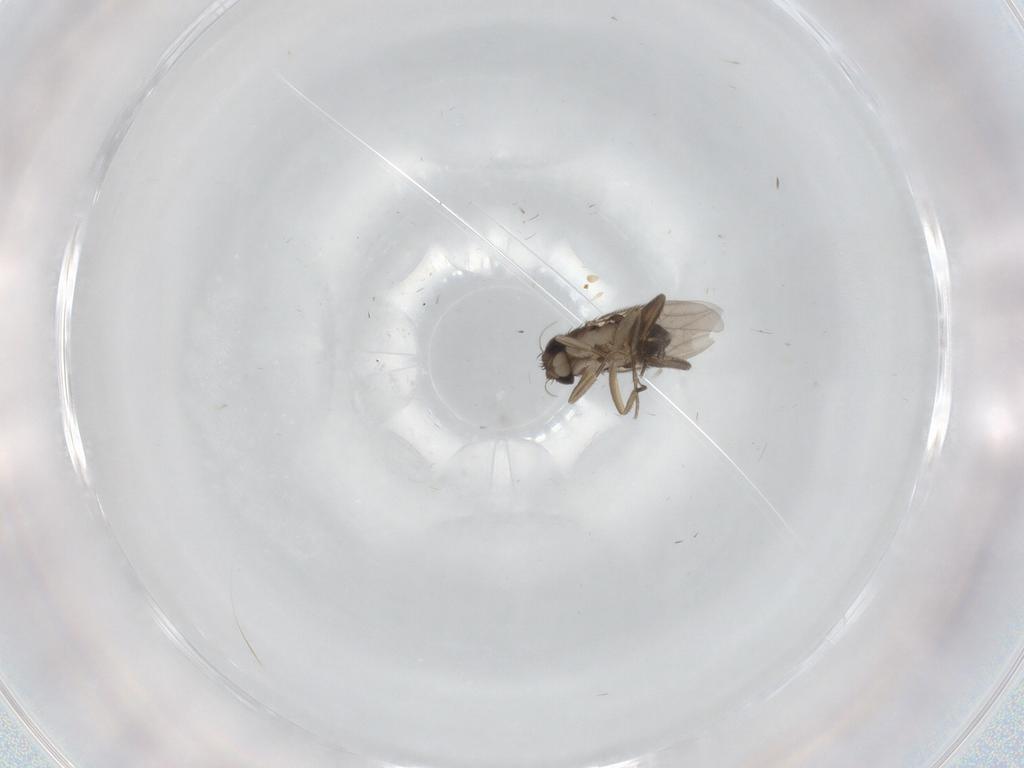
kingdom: Animalia
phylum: Arthropoda
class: Insecta
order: Diptera
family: Phoridae
